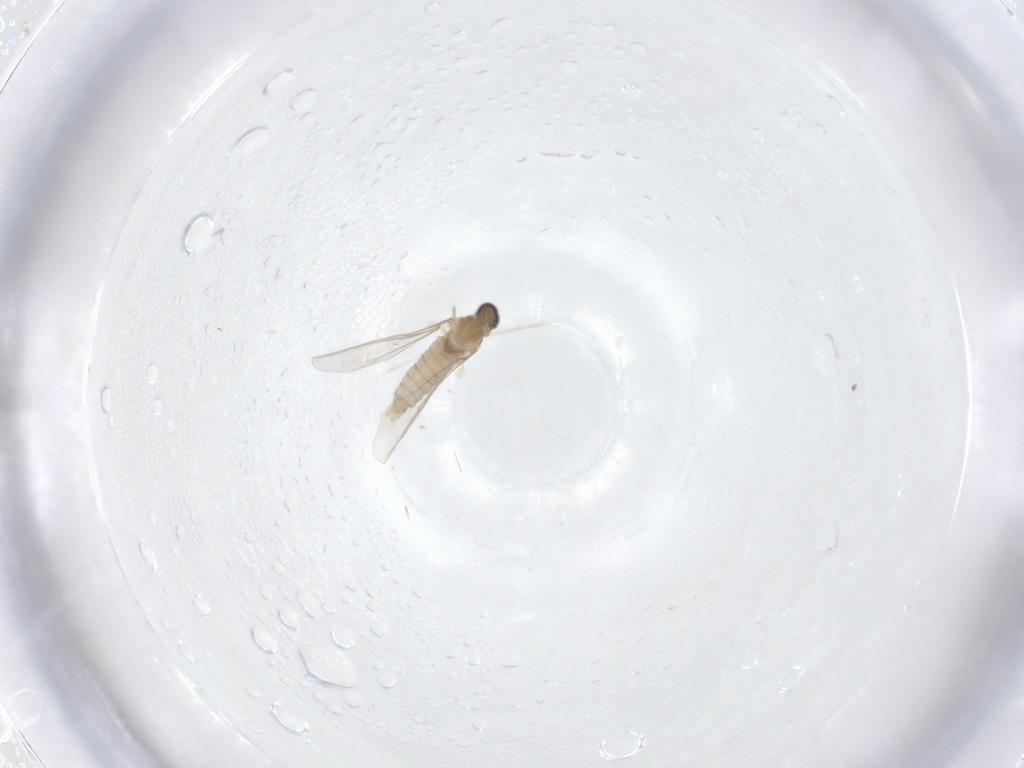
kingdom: Animalia
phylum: Arthropoda
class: Insecta
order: Diptera
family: Cecidomyiidae
